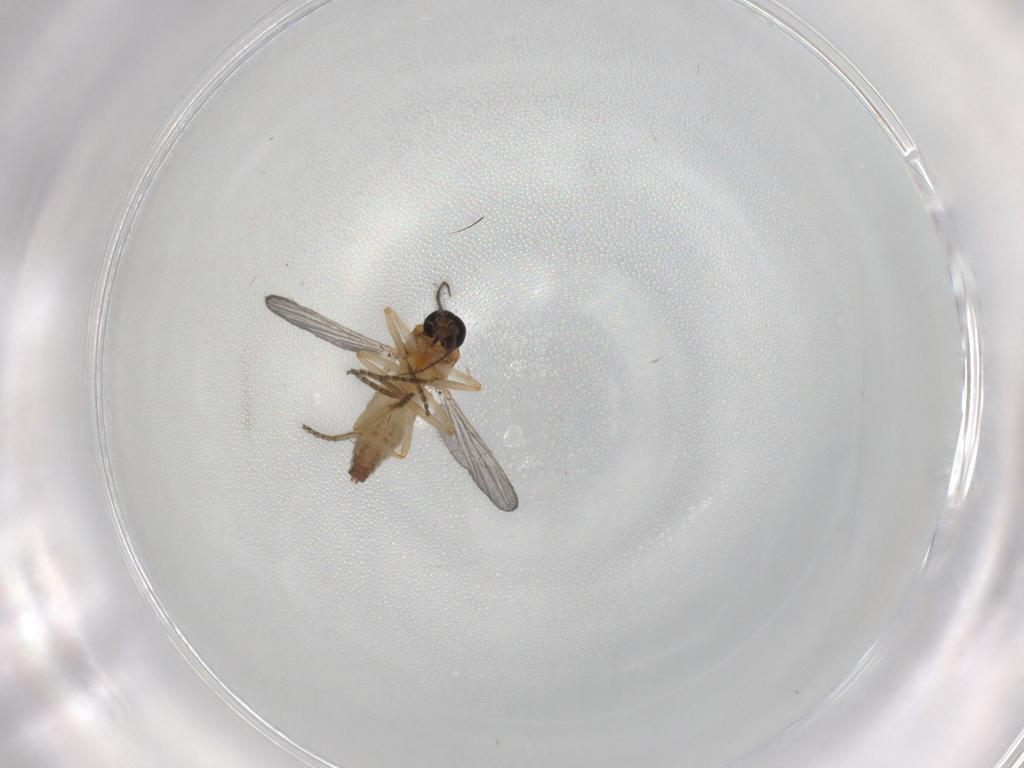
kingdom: Animalia
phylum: Arthropoda
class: Insecta
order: Diptera
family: Ceratopogonidae
